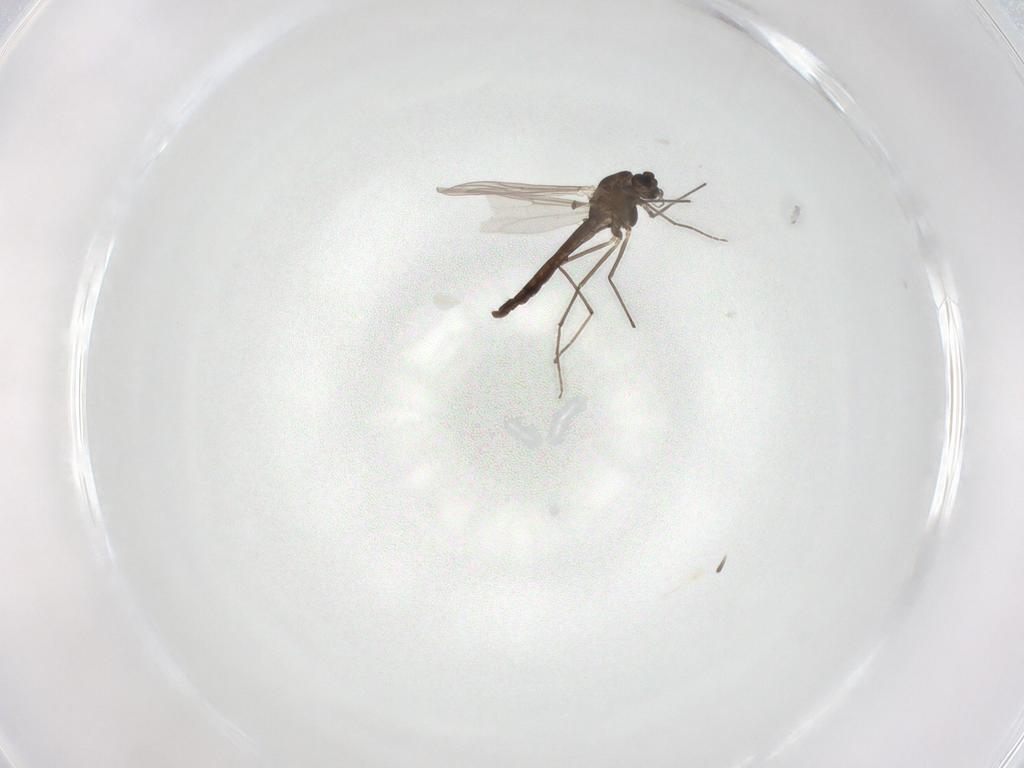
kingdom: Animalia
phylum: Arthropoda
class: Insecta
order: Diptera
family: Chironomidae
